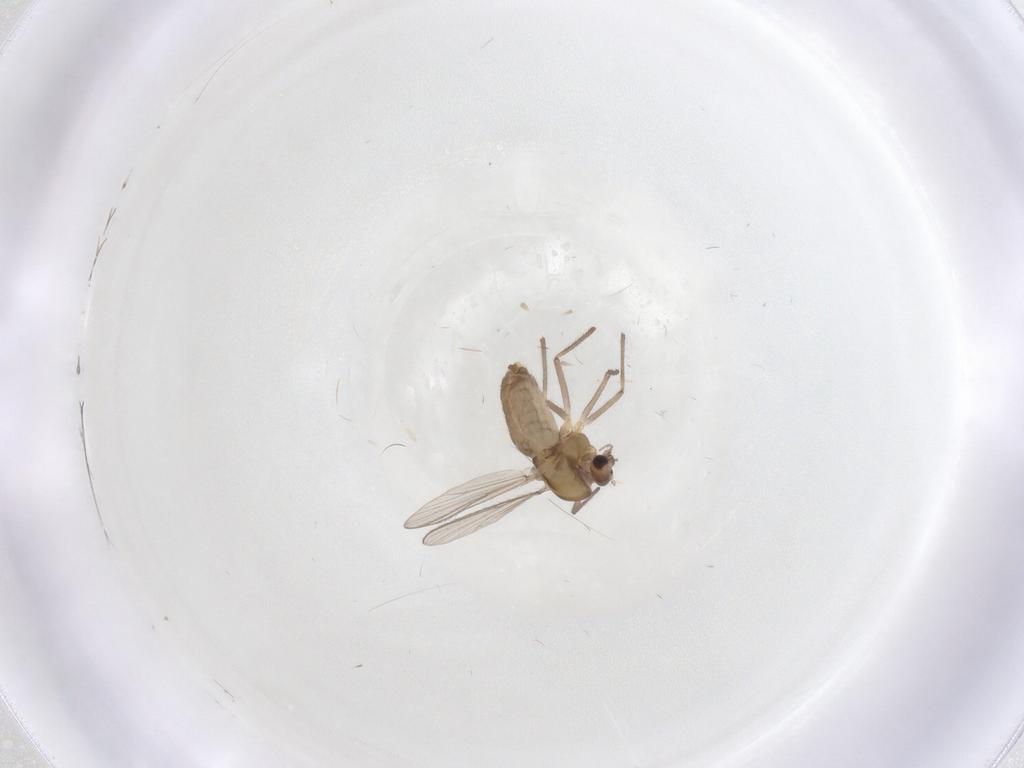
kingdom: Animalia
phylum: Arthropoda
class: Insecta
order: Diptera
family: Chironomidae
